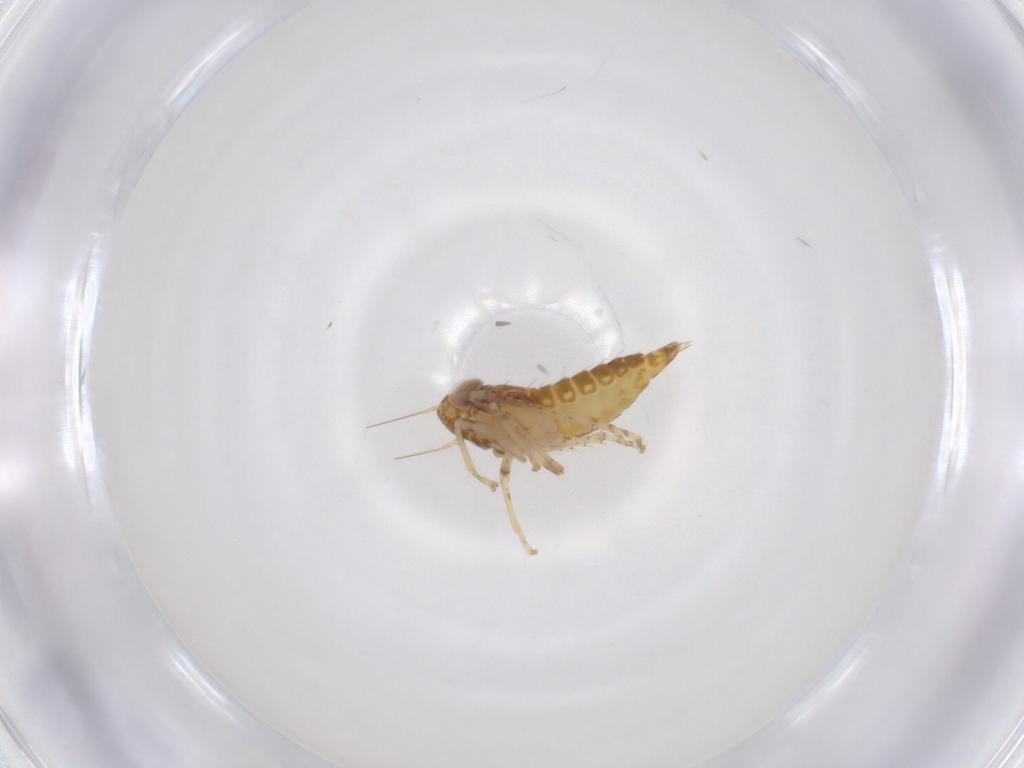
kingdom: Animalia
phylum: Arthropoda
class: Insecta
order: Hemiptera
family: Cicadellidae
